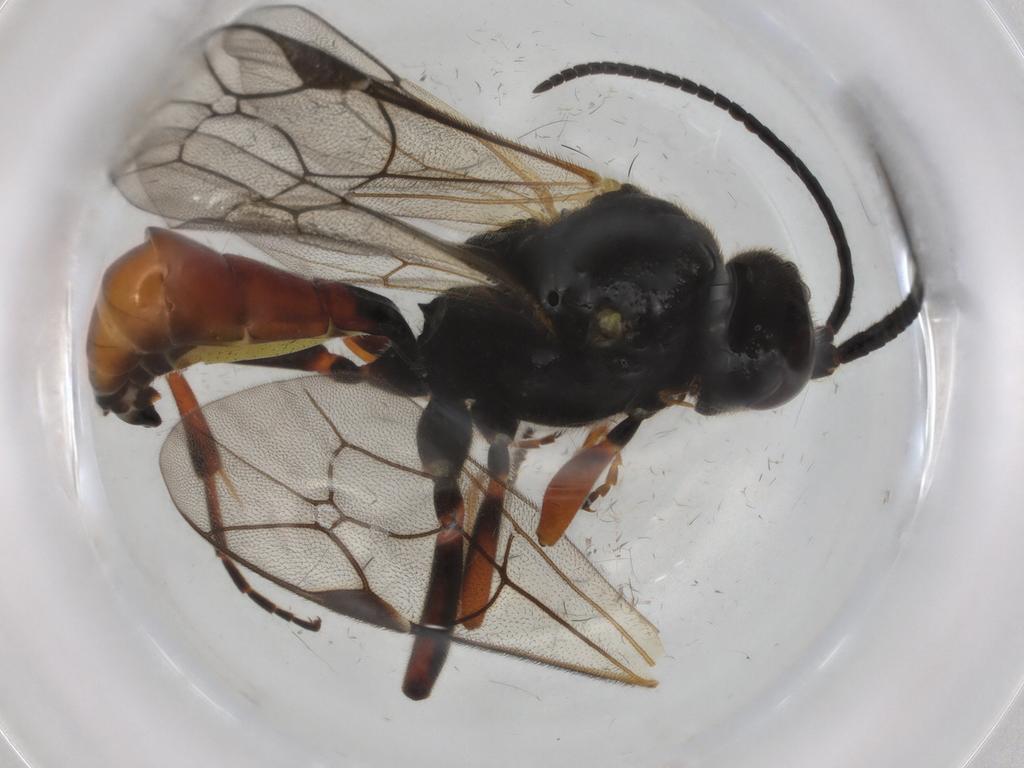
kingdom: Animalia
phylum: Arthropoda
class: Insecta
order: Hymenoptera
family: Ichneumonidae
